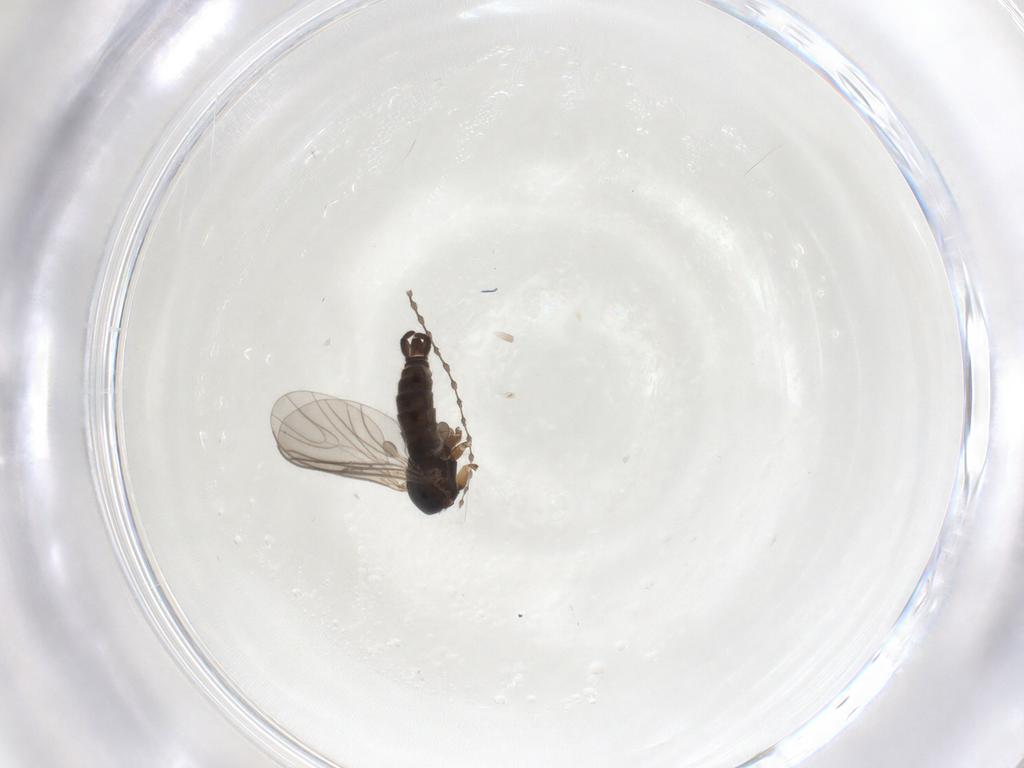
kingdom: Animalia
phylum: Arthropoda
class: Insecta
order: Diptera
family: Sciaridae
